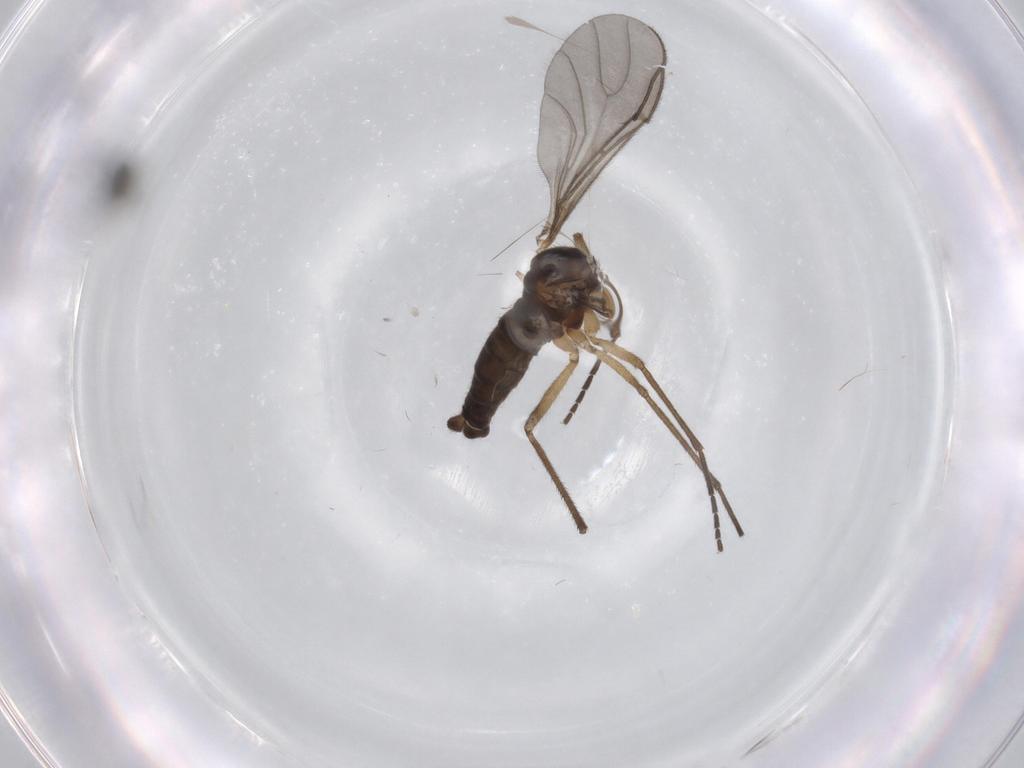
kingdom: Animalia
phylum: Arthropoda
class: Insecta
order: Diptera
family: Sciaridae
